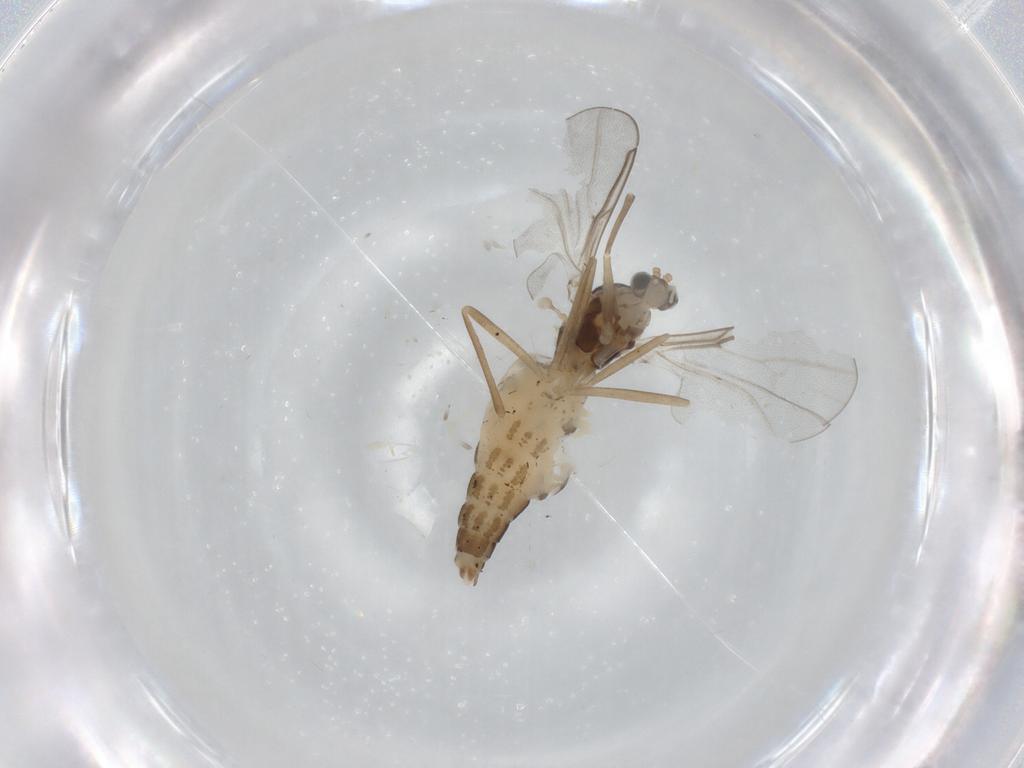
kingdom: Animalia
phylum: Arthropoda
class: Insecta
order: Diptera
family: Cecidomyiidae
